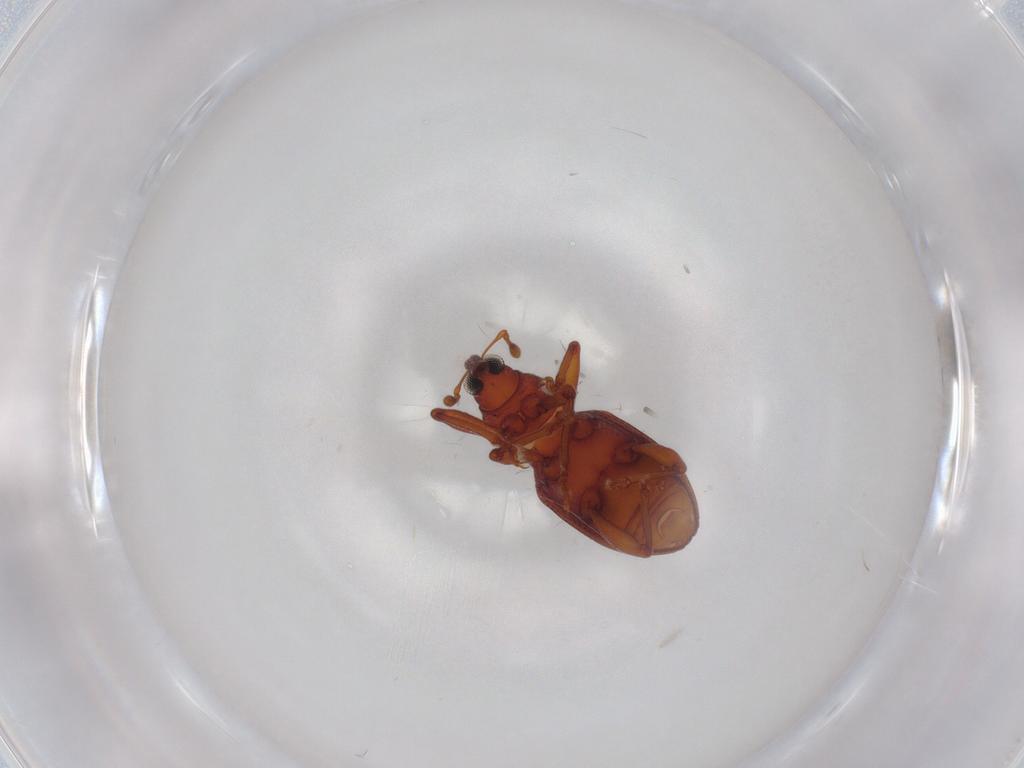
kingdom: Animalia
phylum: Arthropoda
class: Insecta
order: Coleoptera
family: Curculionidae
